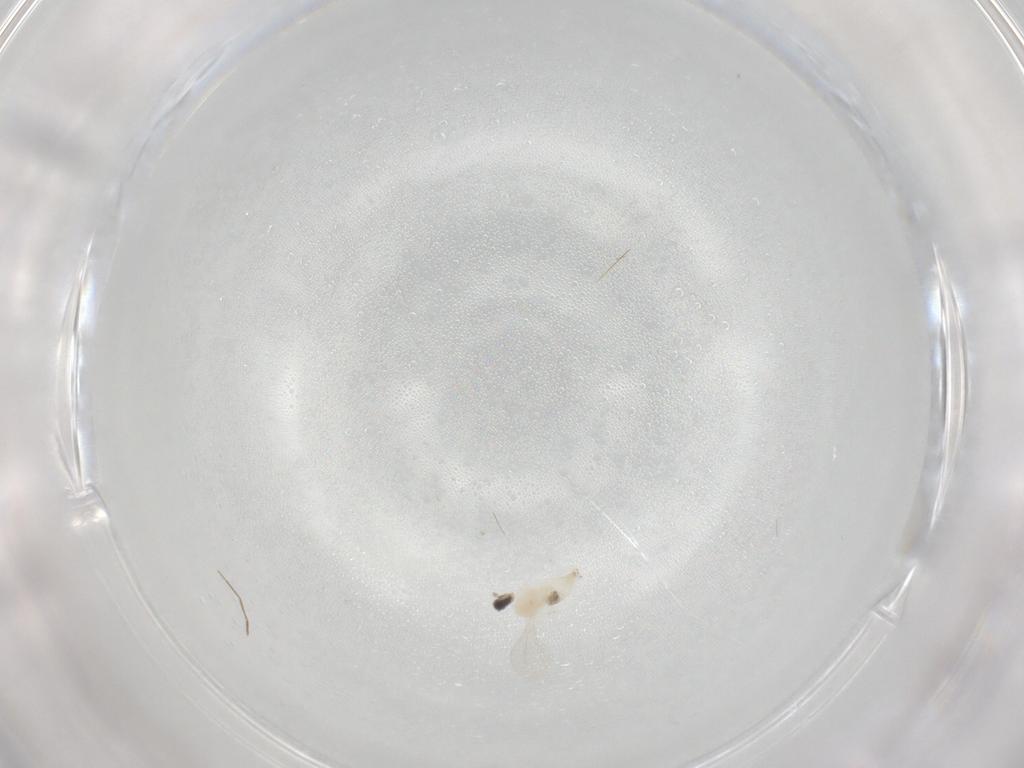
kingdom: Animalia
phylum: Arthropoda
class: Insecta
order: Diptera
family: Cecidomyiidae
